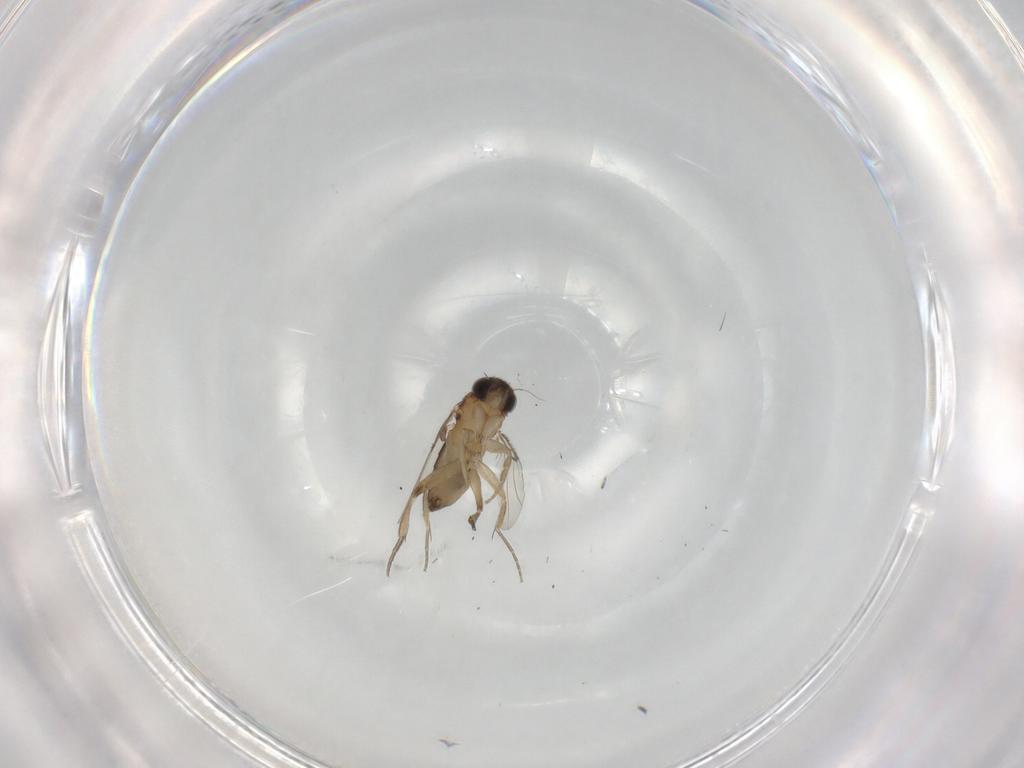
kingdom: Animalia
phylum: Arthropoda
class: Insecta
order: Diptera
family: Phoridae
